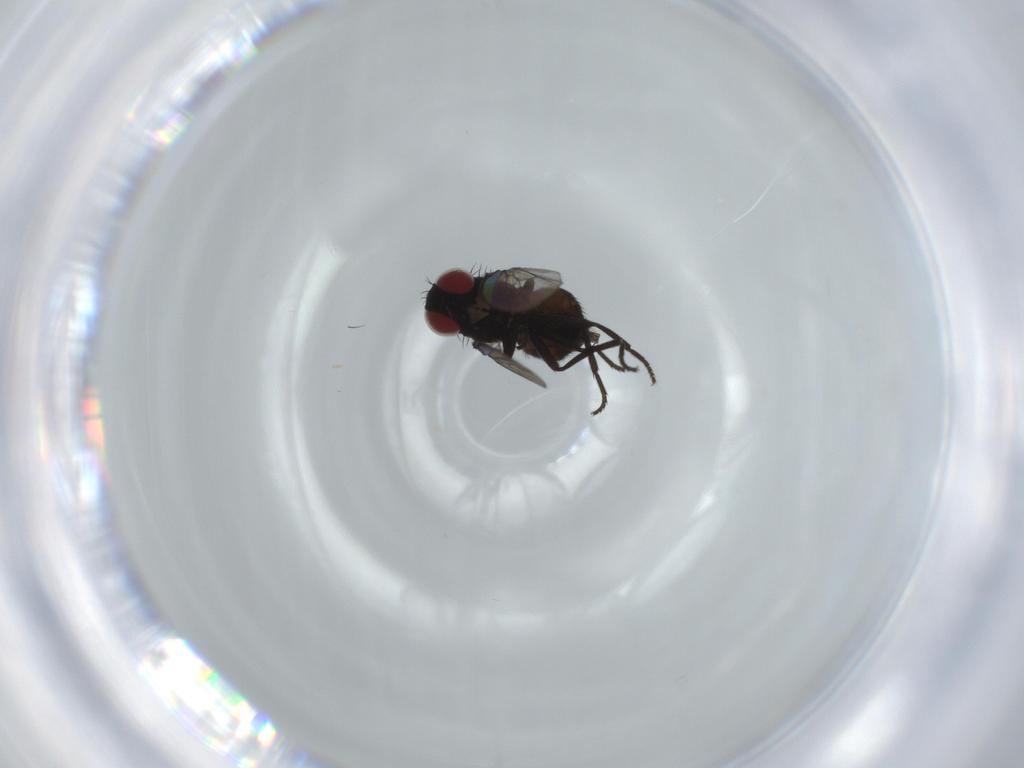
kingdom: Animalia
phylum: Arthropoda
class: Insecta
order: Diptera
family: Agromyzidae
